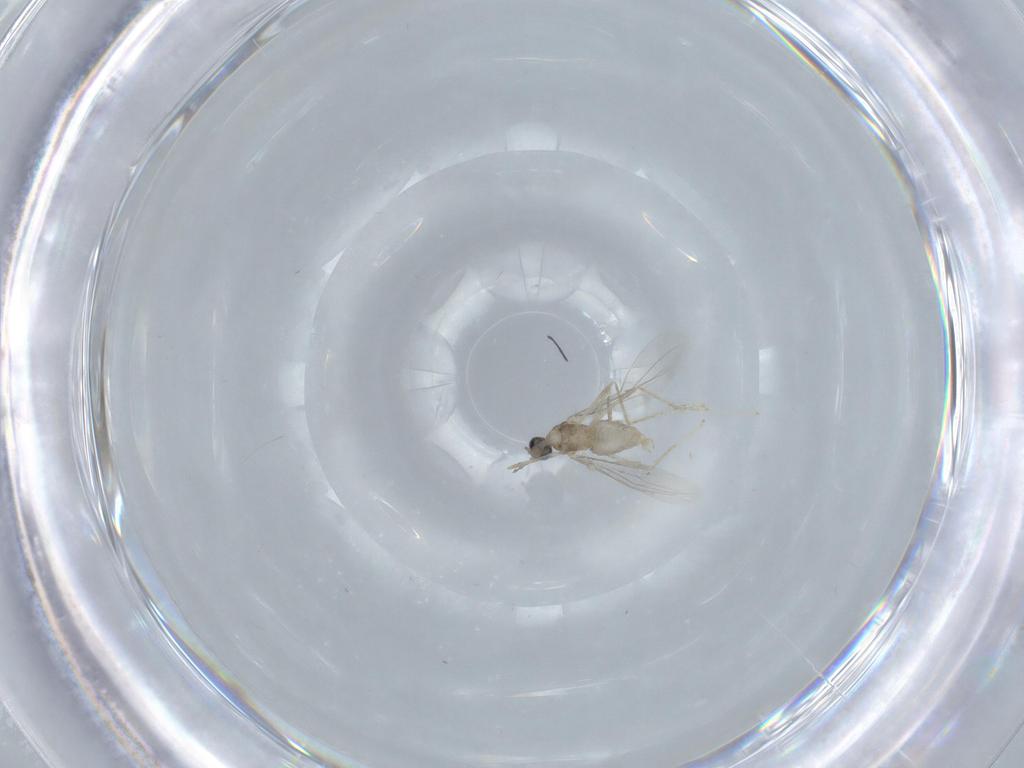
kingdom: Animalia
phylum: Arthropoda
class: Insecta
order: Diptera
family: Cecidomyiidae
